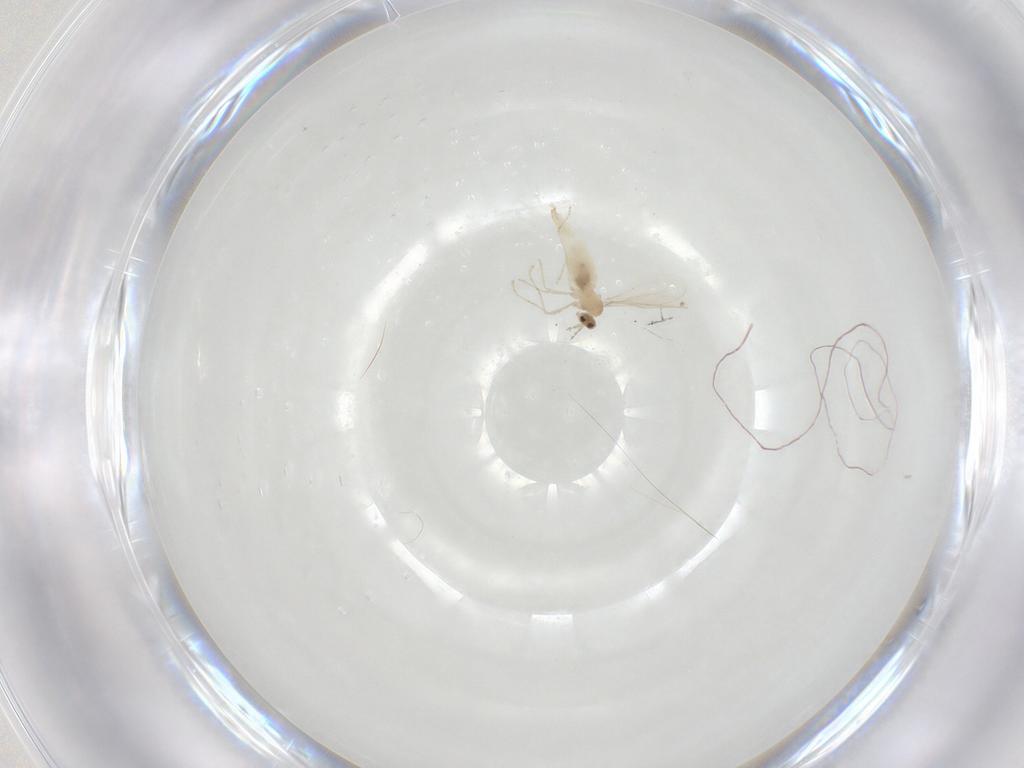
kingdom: Animalia
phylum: Arthropoda
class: Insecta
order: Diptera
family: Cecidomyiidae
